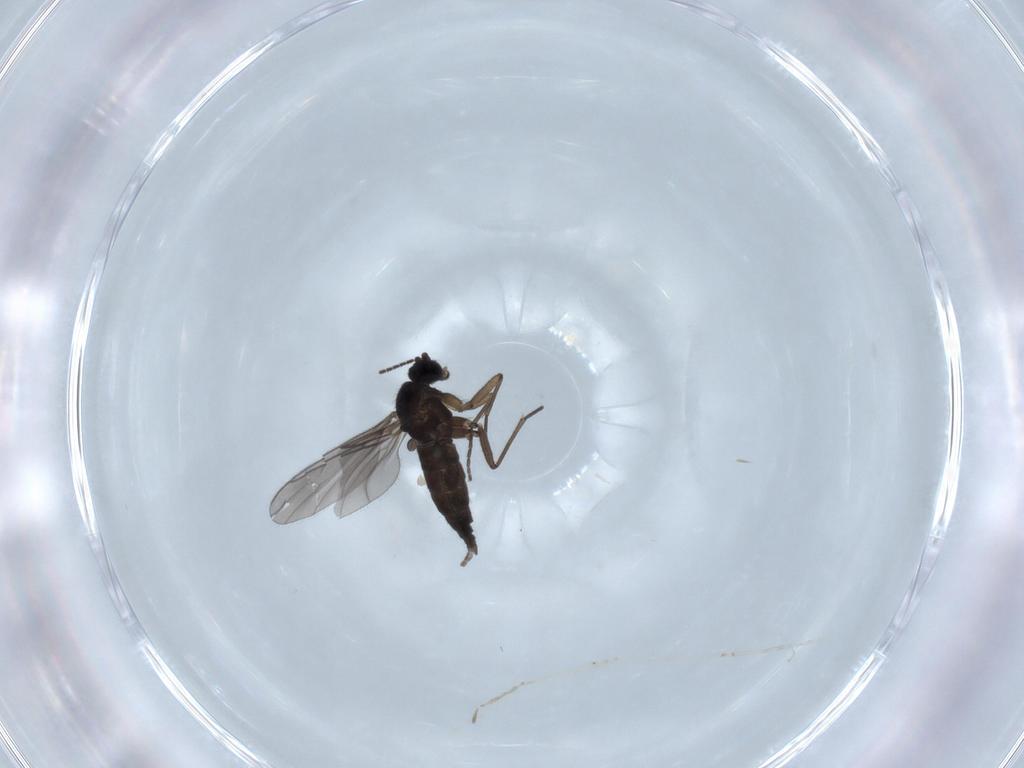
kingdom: Animalia
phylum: Arthropoda
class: Insecta
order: Diptera
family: Sciaridae
